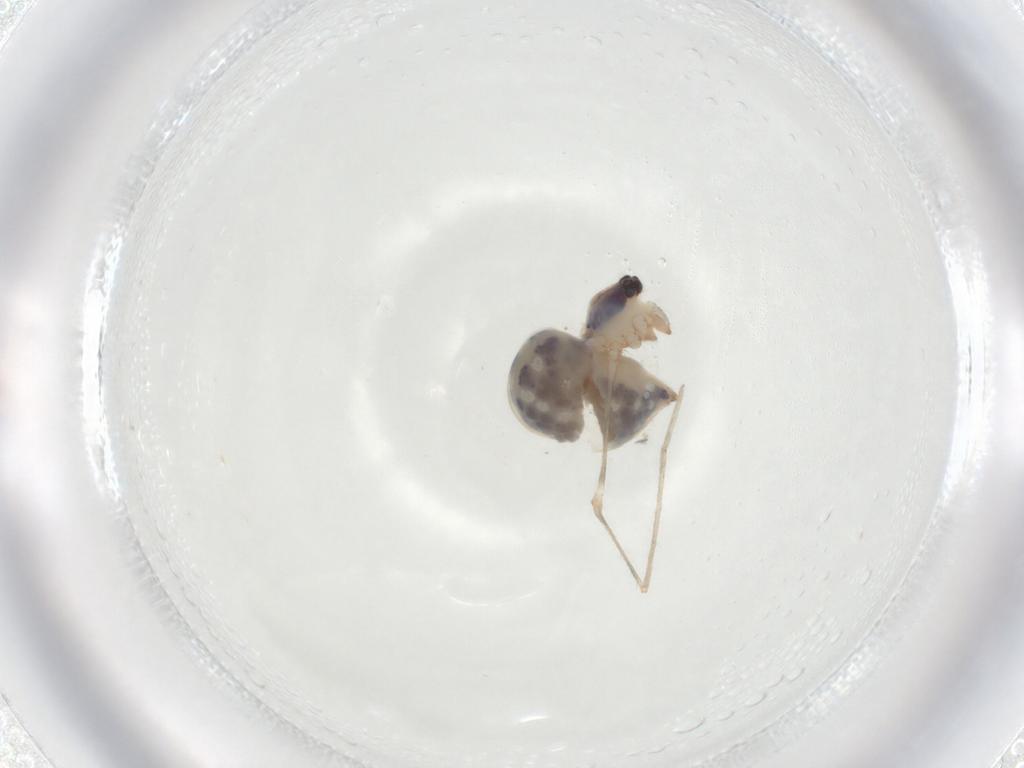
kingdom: Animalia
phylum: Arthropoda
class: Arachnida
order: Araneae
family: Pholcidae
